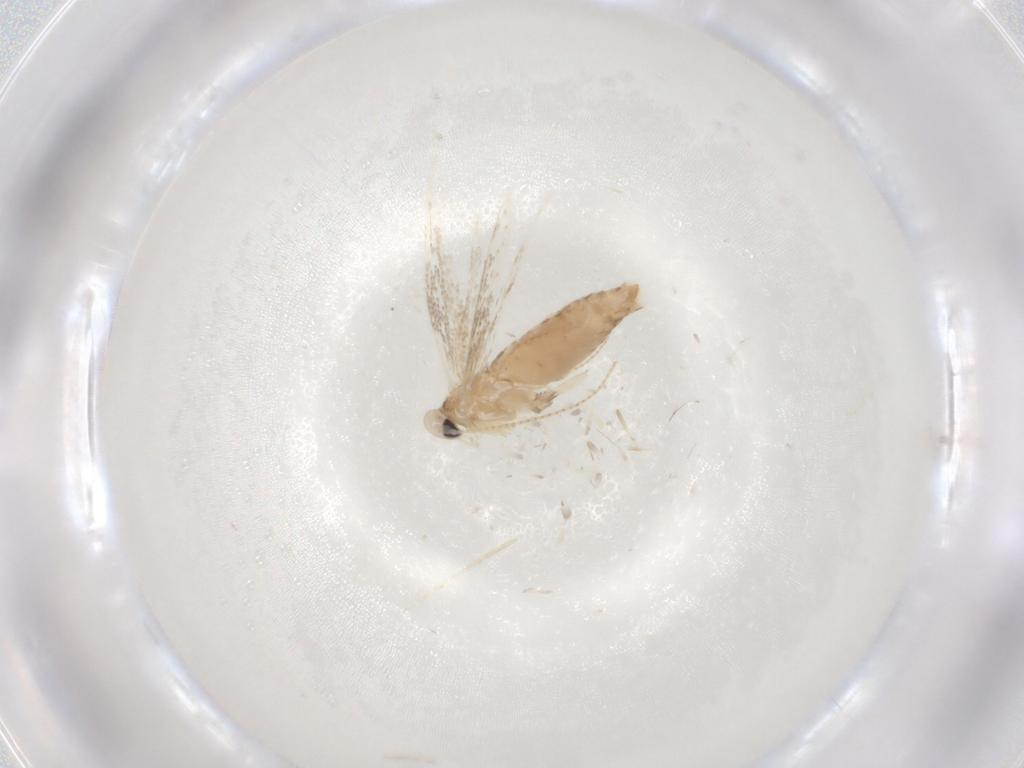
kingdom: Animalia
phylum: Arthropoda
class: Insecta
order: Lepidoptera
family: Gracillariidae
